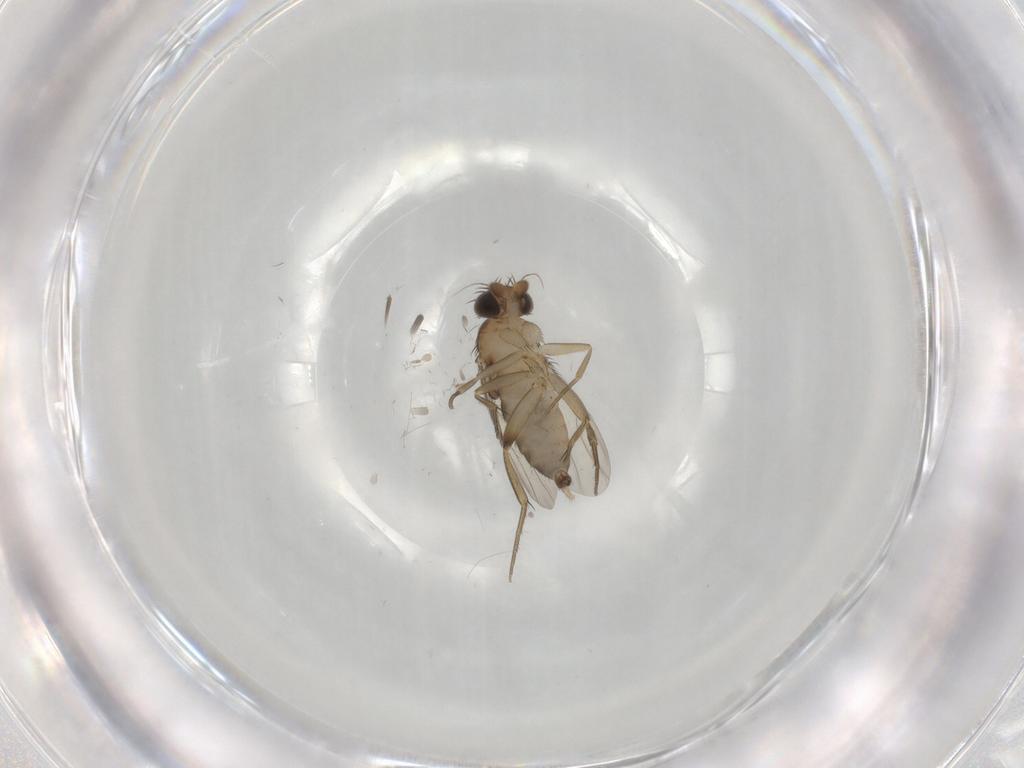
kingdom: Animalia
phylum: Arthropoda
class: Insecta
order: Diptera
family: Phoridae
